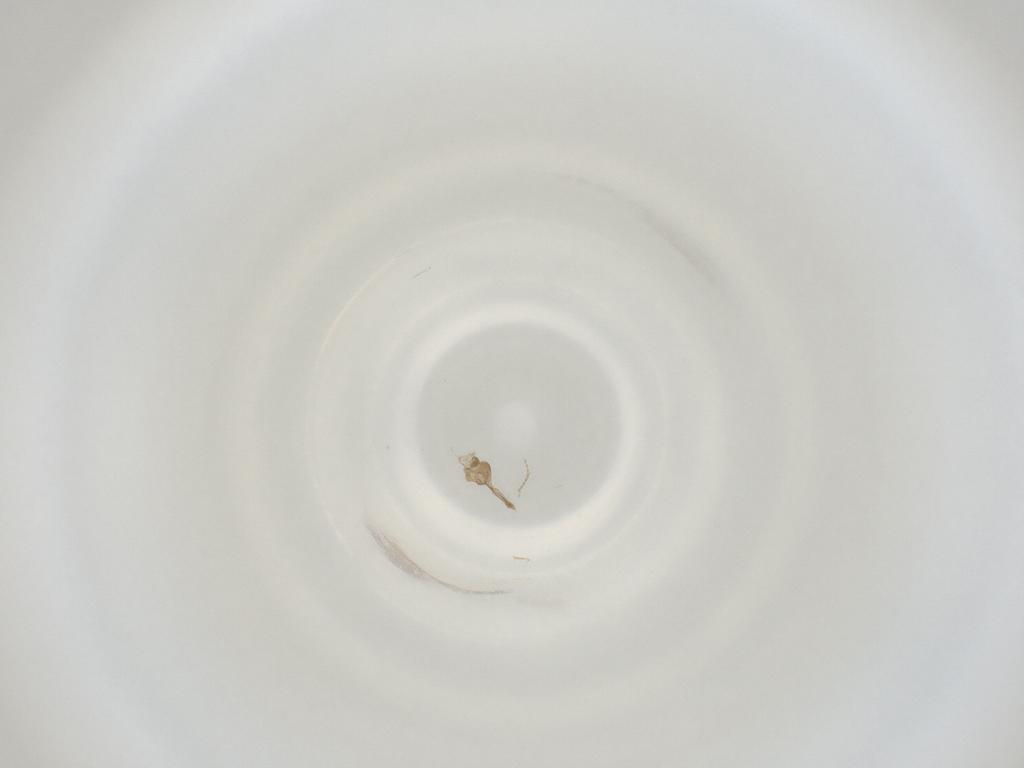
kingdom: Animalia
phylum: Arthropoda
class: Insecta
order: Diptera
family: Cecidomyiidae
